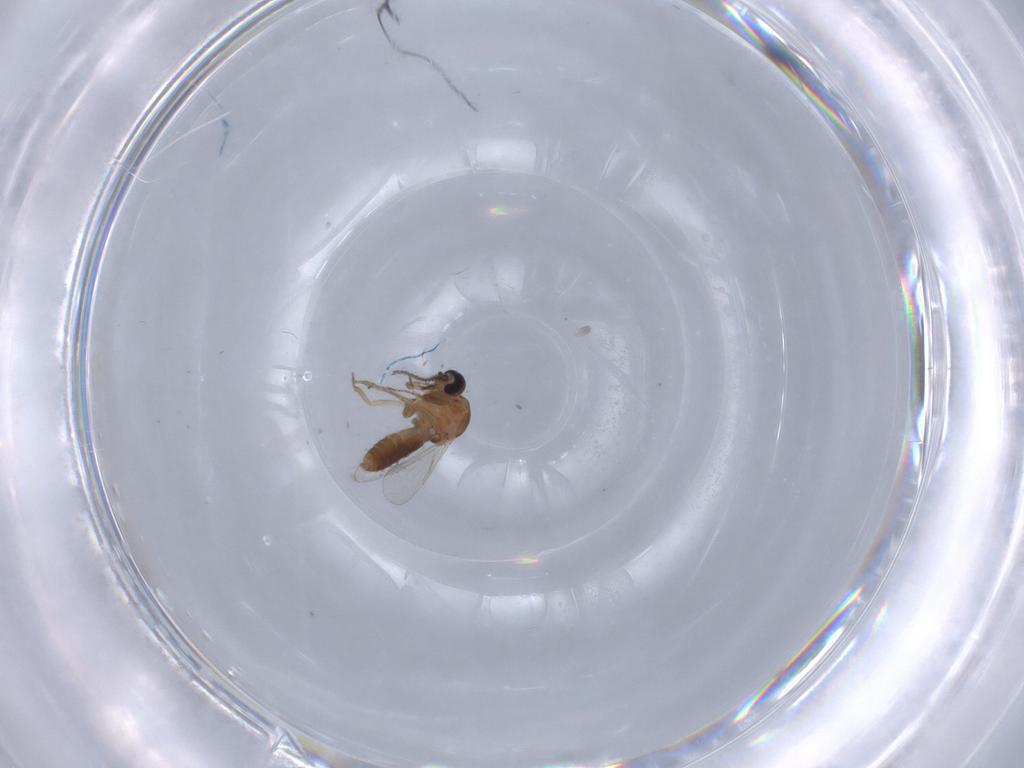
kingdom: Animalia
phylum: Arthropoda
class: Insecta
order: Diptera
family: Ceratopogonidae
